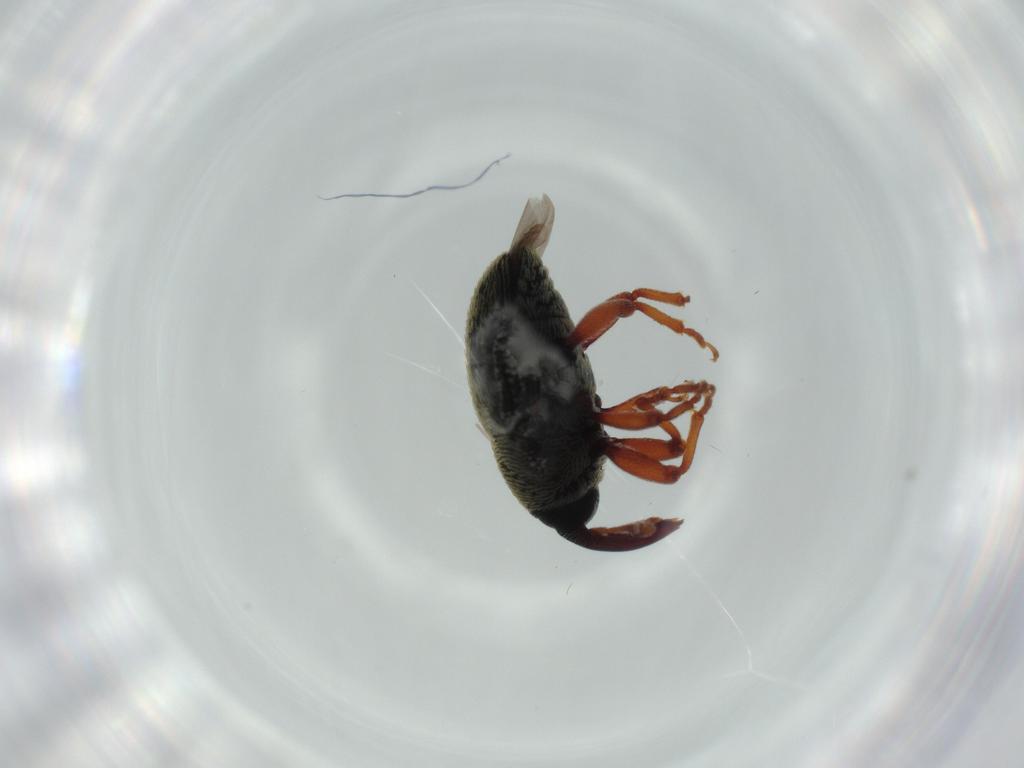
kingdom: Animalia
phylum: Arthropoda
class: Insecta
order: Coleoptera
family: Curculionidae
